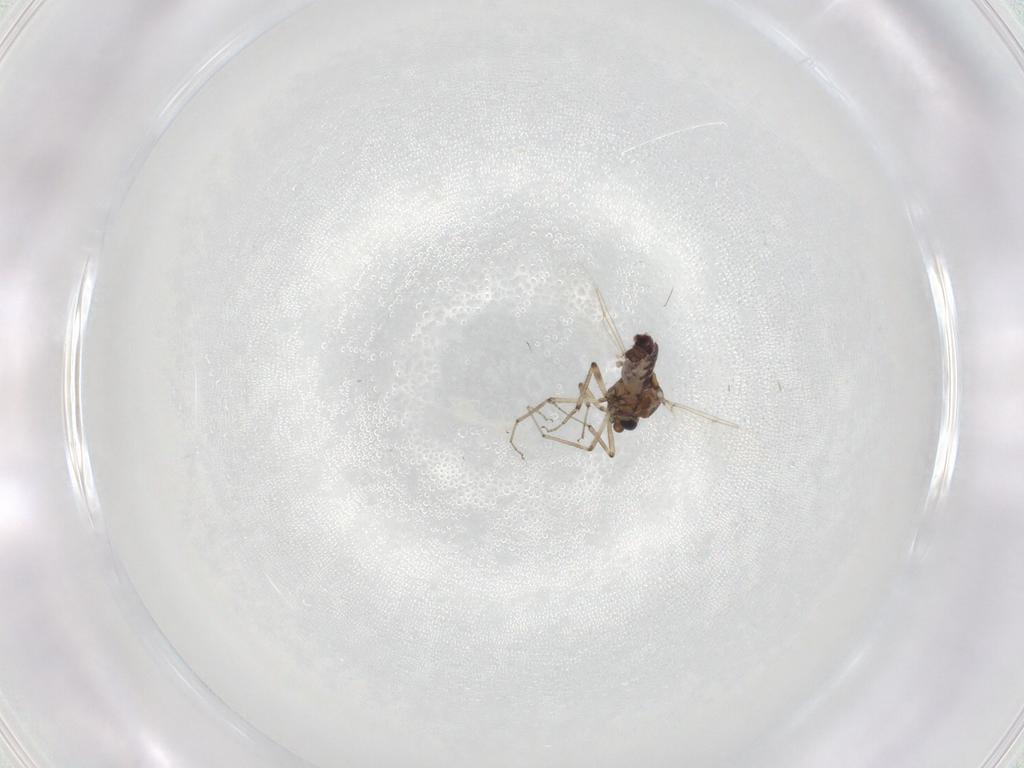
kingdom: Animalia
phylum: Arthropoda
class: Insecta
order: Diptera
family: Ceratopogonidae
